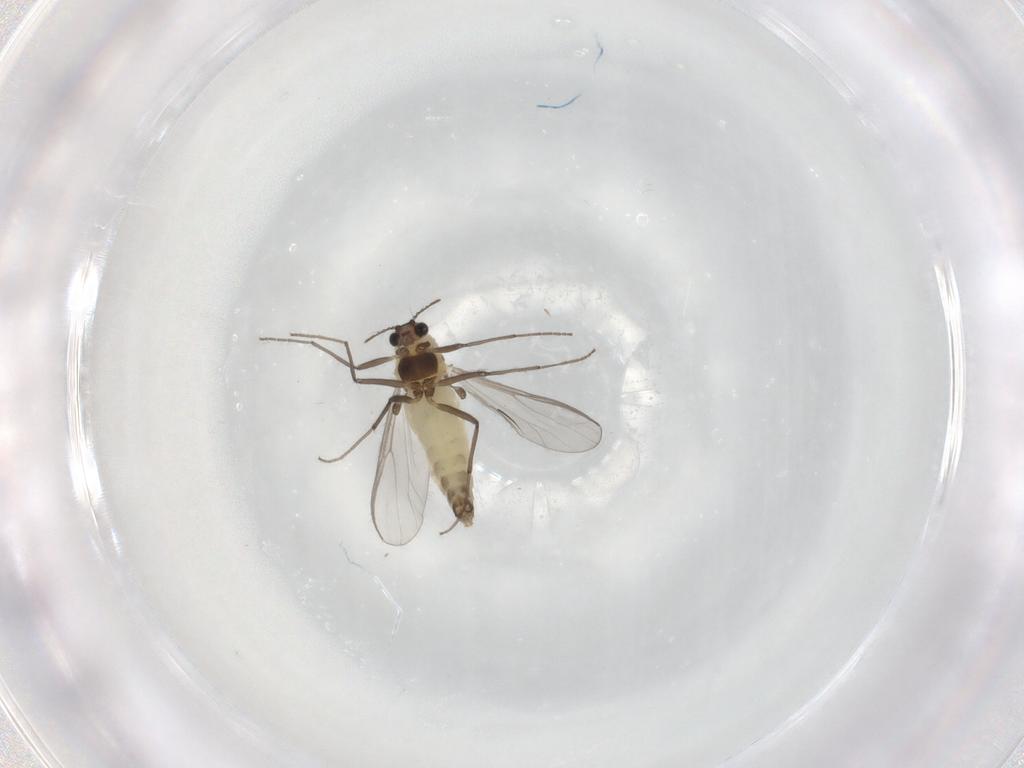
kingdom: Animalia
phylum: Arthropoda
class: Insecta
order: Diptera
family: Chironomidae
